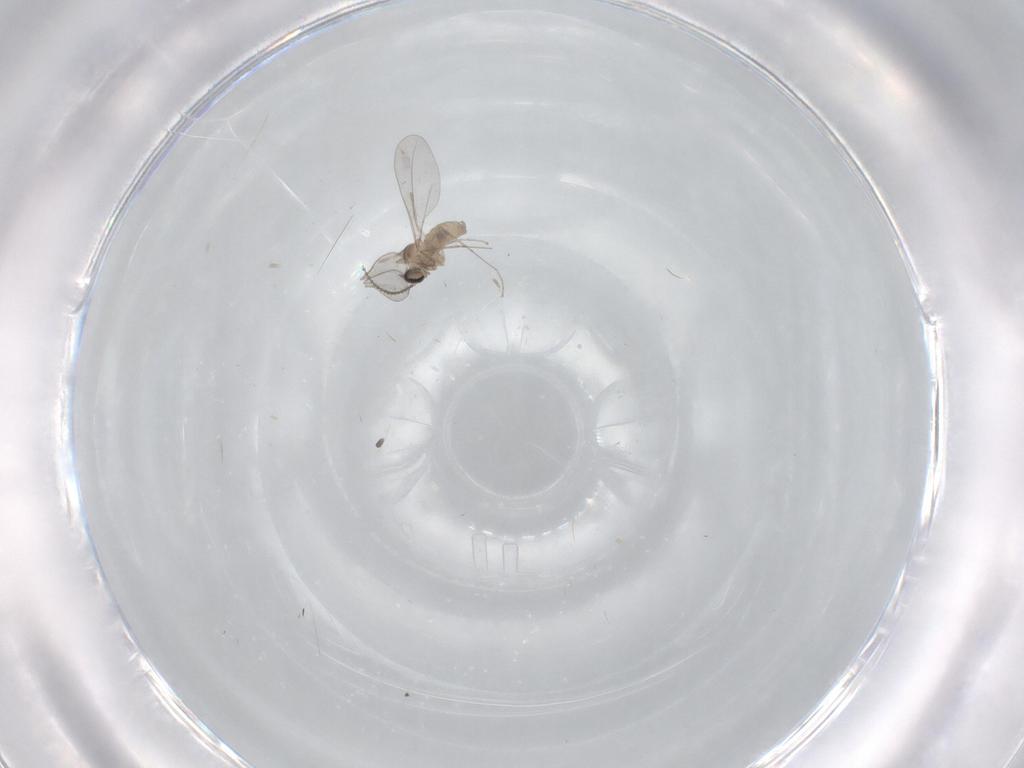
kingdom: Animalia
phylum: Arthropoda
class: Insecta
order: Diptera
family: Cecidomyiidae
